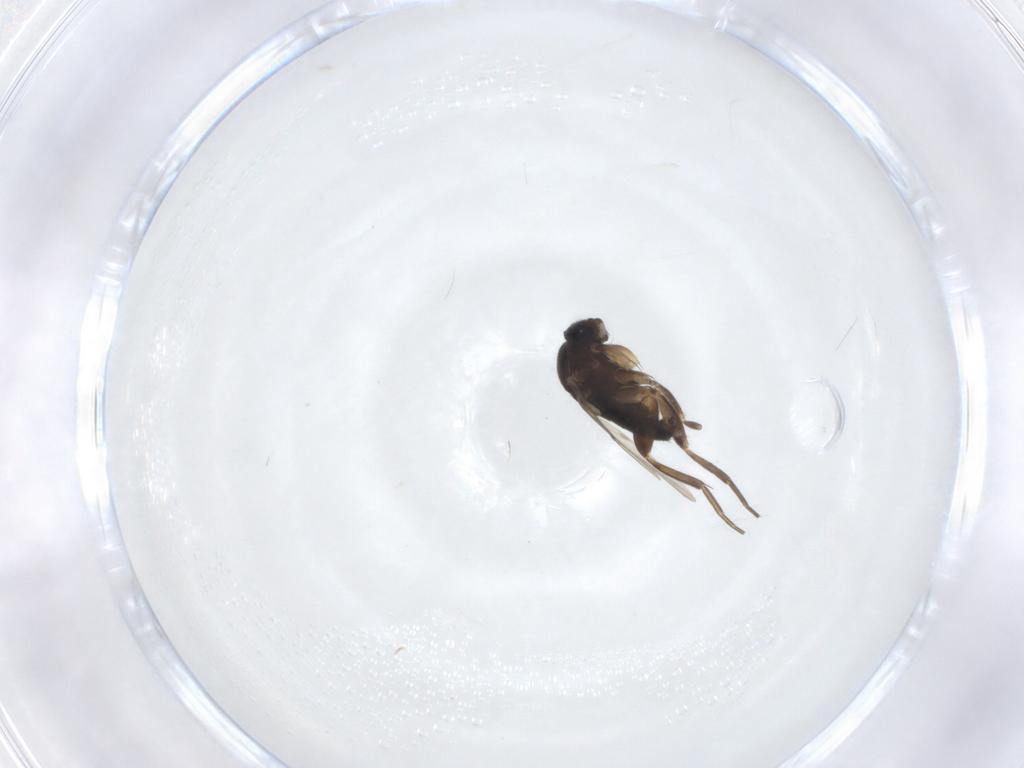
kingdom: Animalia
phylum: Arthropoda
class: Insecta
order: Diptera
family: Phoridae
